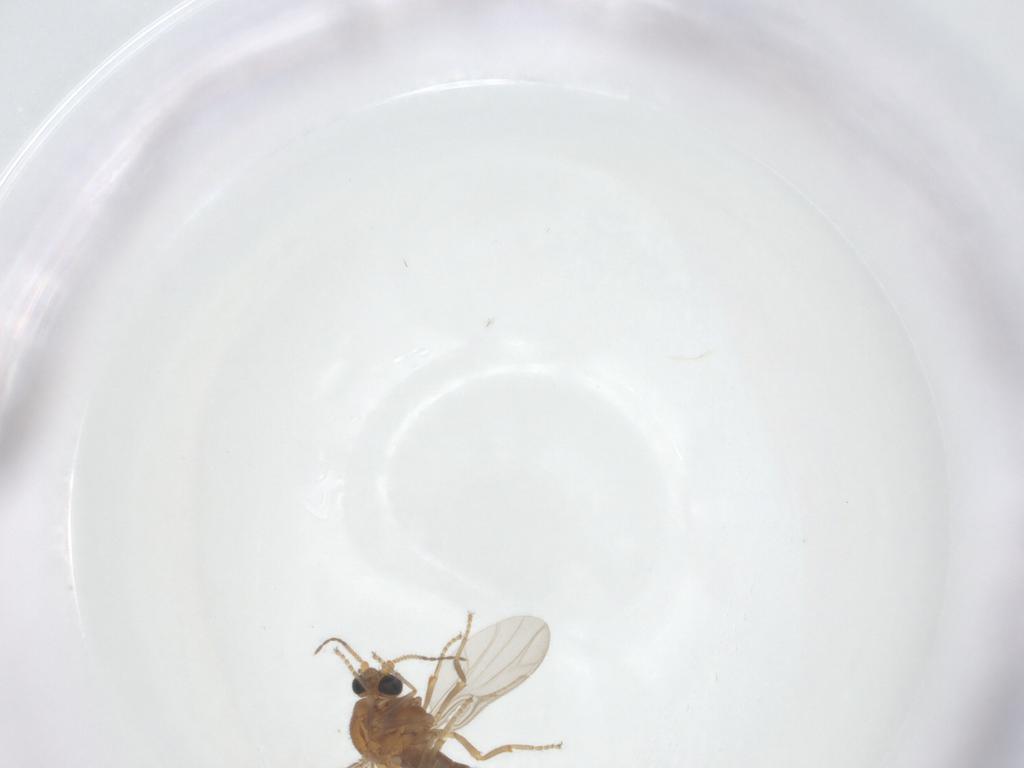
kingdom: Animalia
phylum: Arthropoda
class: Insecta
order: Diptera
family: Ceratopogonidae
